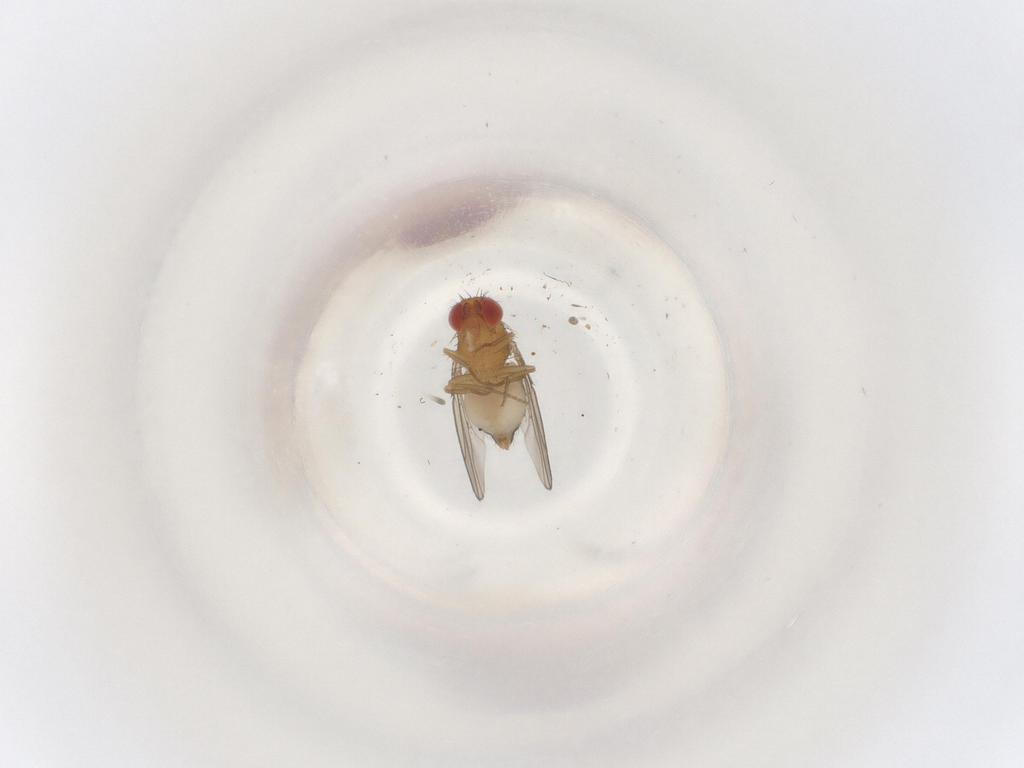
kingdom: Animalia
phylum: Arthropoda
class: Insecta
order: Diptera
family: Drosophilidae
